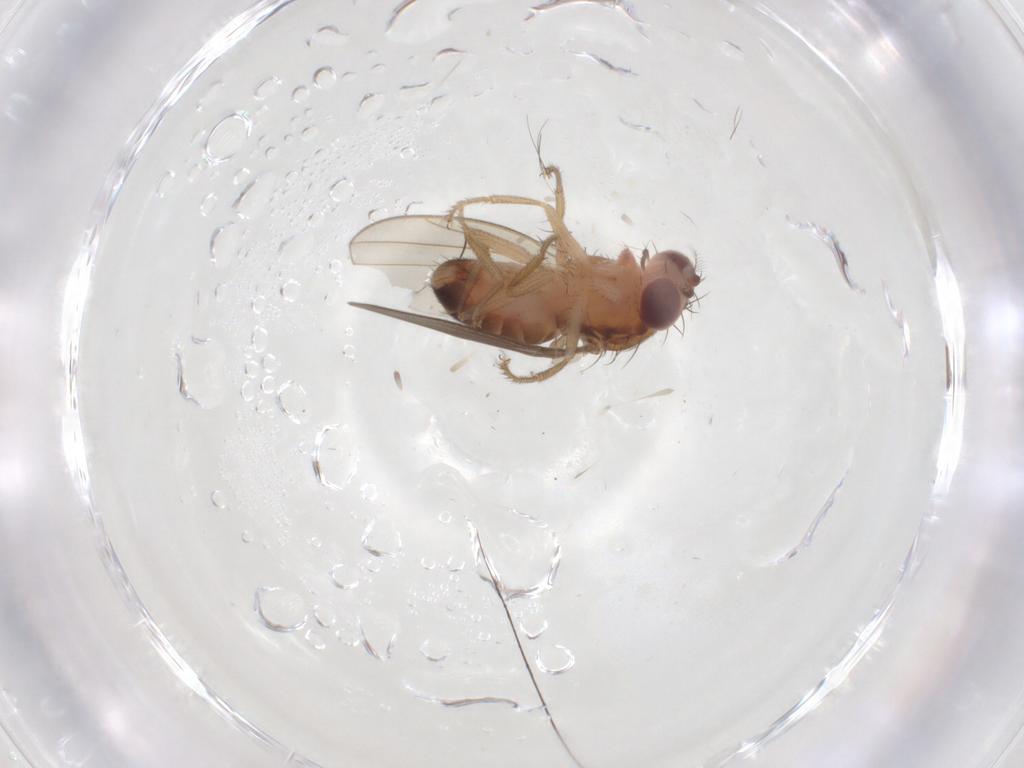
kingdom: Animalia
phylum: Arthropoda
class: Insecta
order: Diptera
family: Drosophilidae
